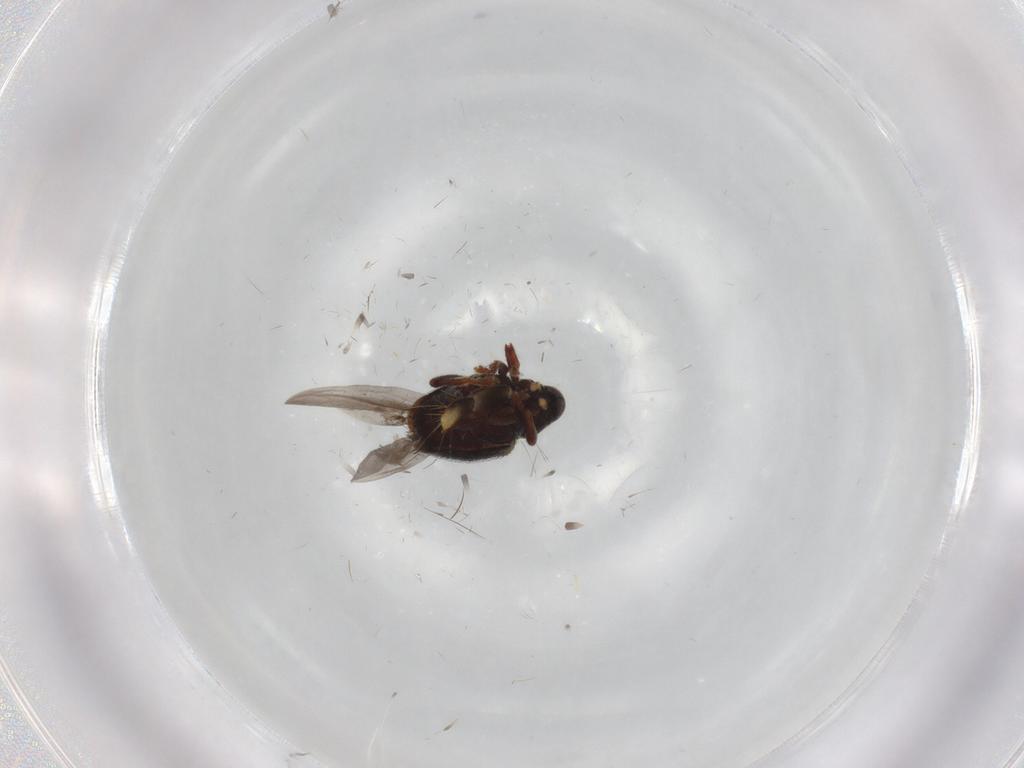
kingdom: Animalia
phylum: Arthropoda
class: Insecta
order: Coleoptera
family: Curculionidae
